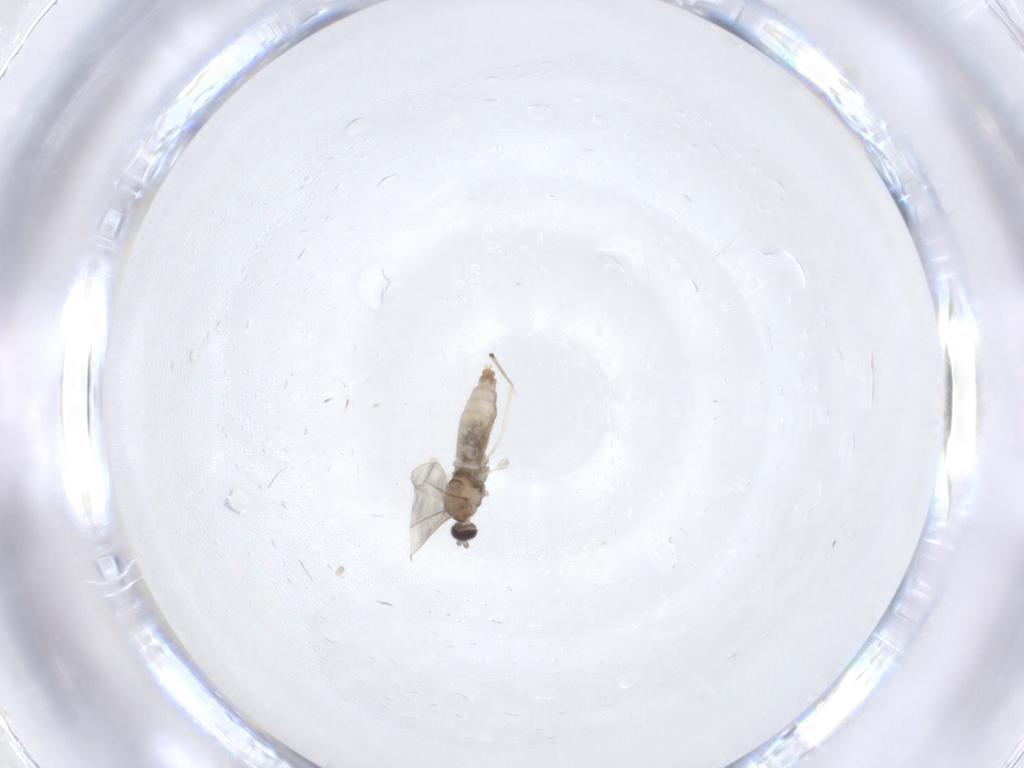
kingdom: Animalia
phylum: Arthropoda
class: Insecta
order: Diptera
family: Cecidomyiidae
